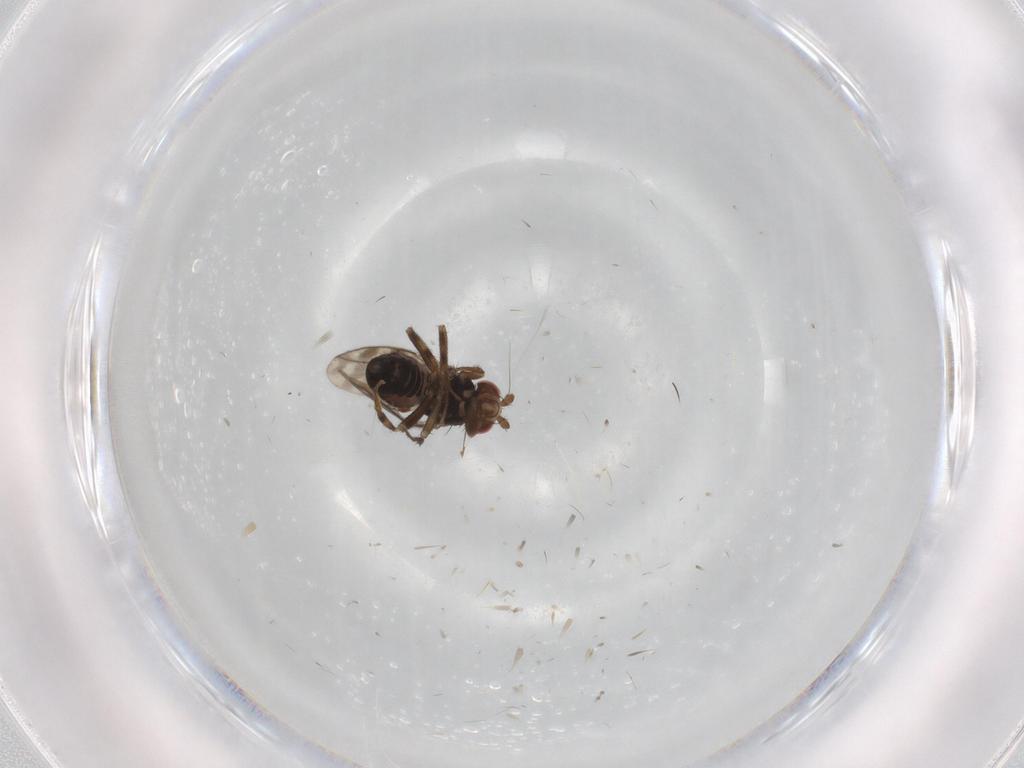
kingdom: Animalia
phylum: Arthropoda
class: Insecta
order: Diptera
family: Sphaeroceridae
